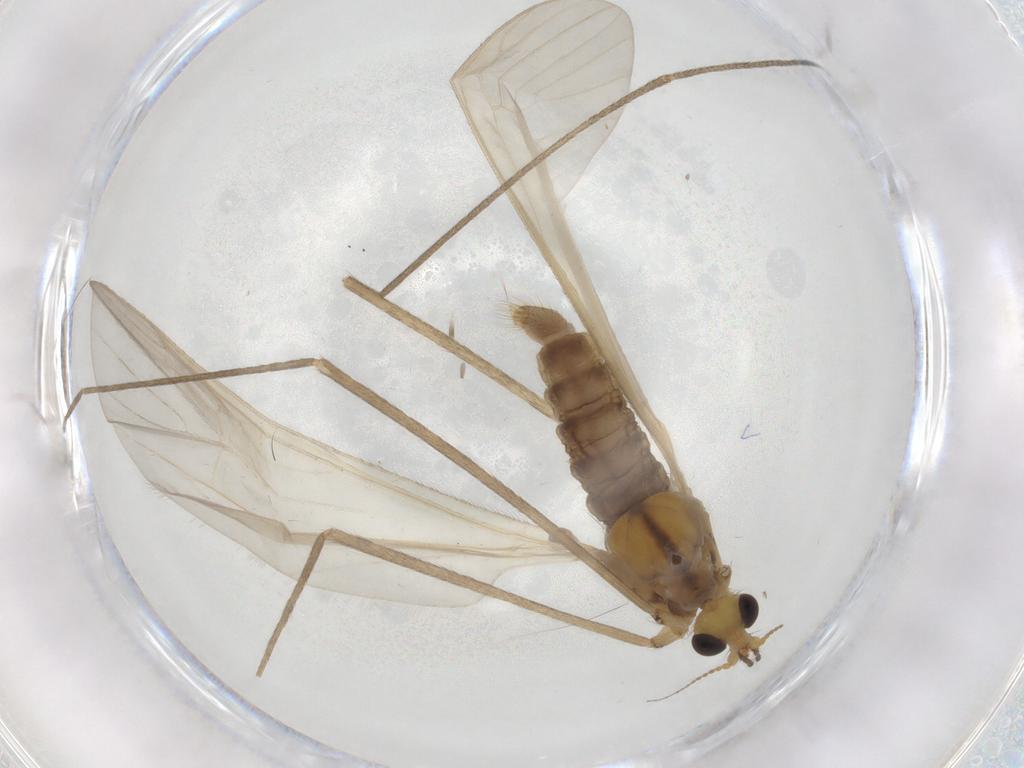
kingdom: Animalia
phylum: Arthropoda
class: Insecta
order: Diptera
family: Limoniidae
